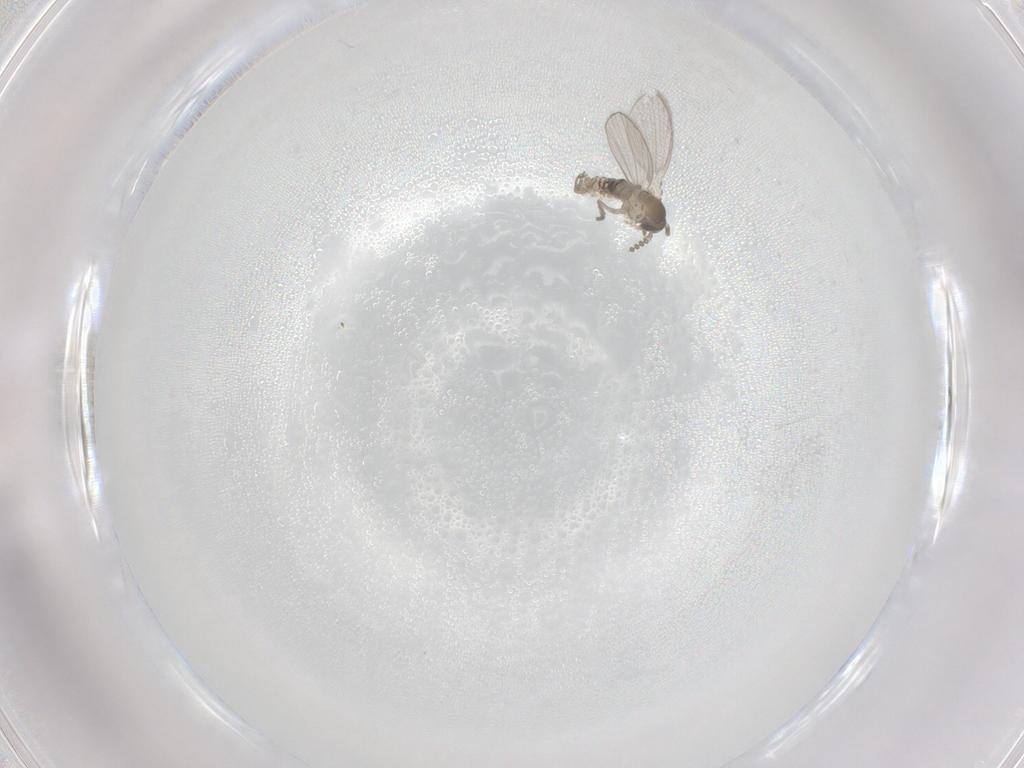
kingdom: Animalia
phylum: Arthropoda
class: Insecta
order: Diptera
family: Psychodidae
